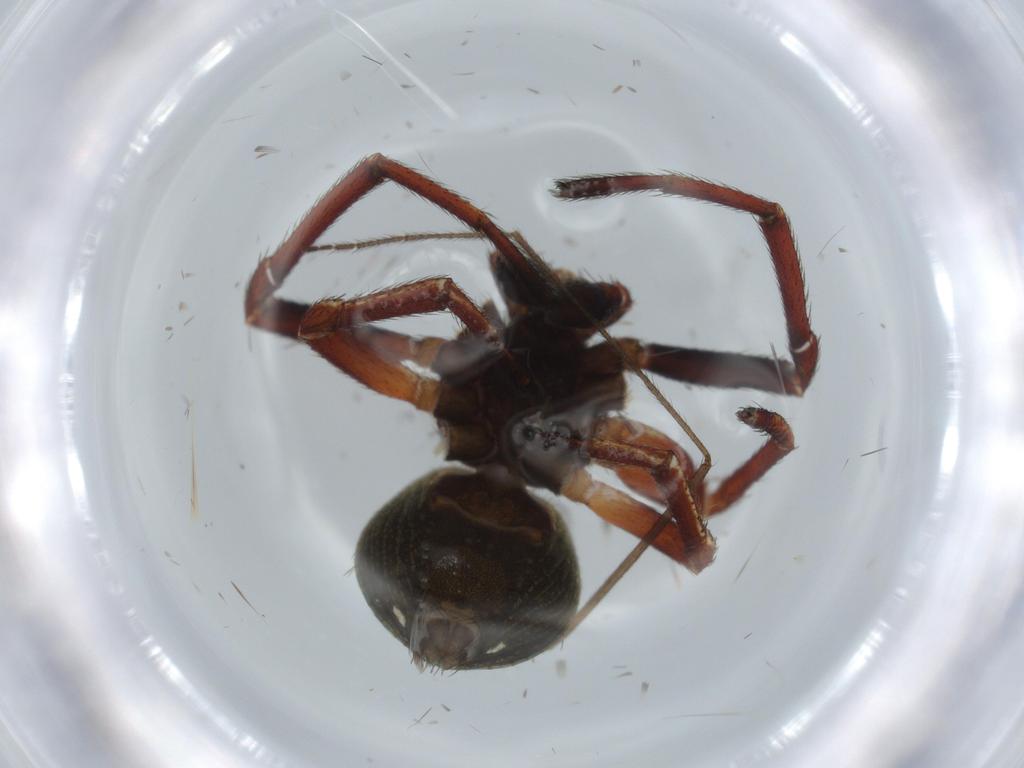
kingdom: Animalia
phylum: Arthropoda
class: Arachnida
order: Araneae
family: Thomisidae
